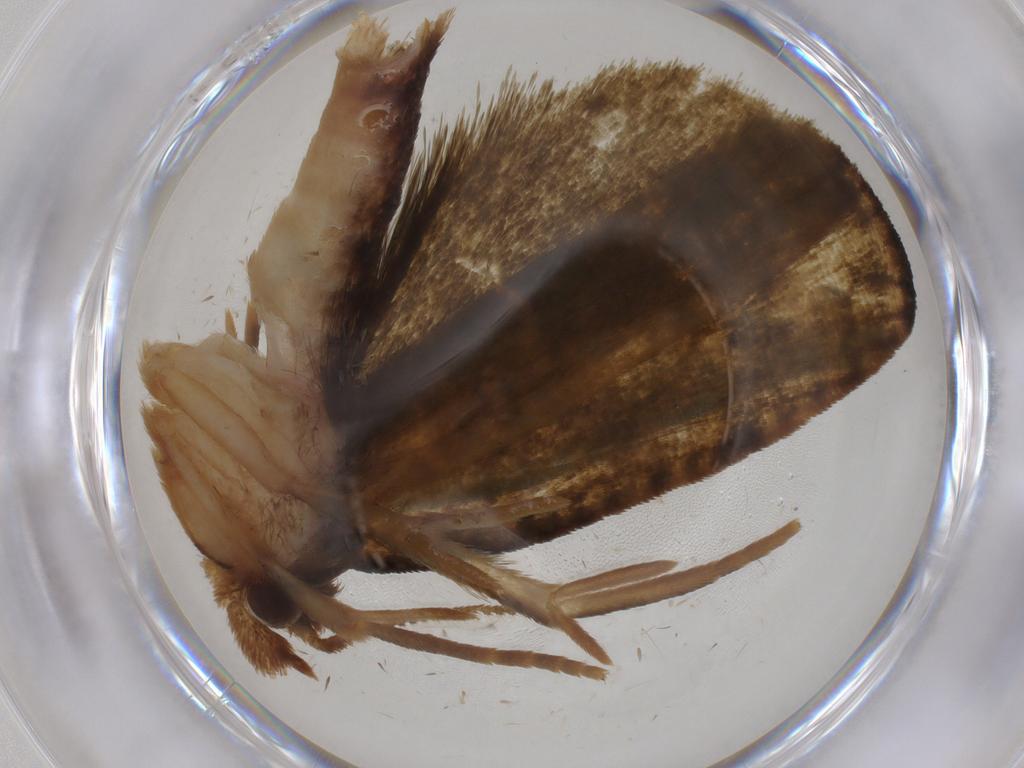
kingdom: Animalia
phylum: Arthropoda
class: Insecta
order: Lepidoptera
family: Geometridae
